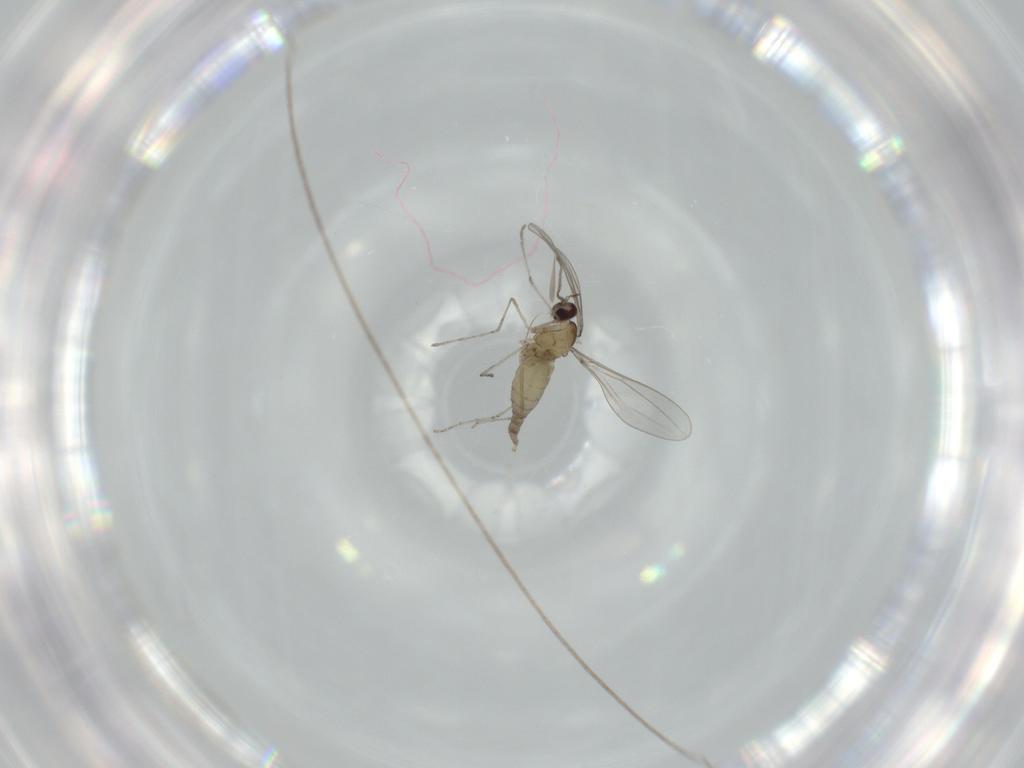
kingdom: Animalia
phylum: Arthropoda
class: Insecta
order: Diptera
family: Cecidomyiidae
